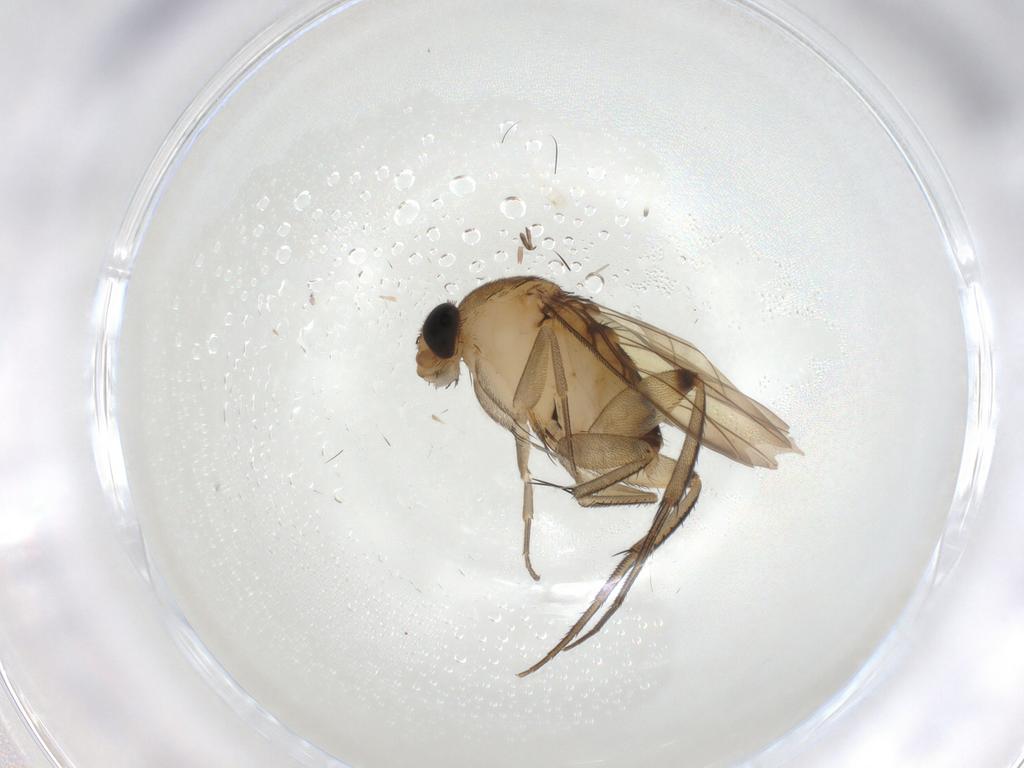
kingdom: Animalia
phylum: Arthropoda
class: Insecta
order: Diptera
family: Phoridae
